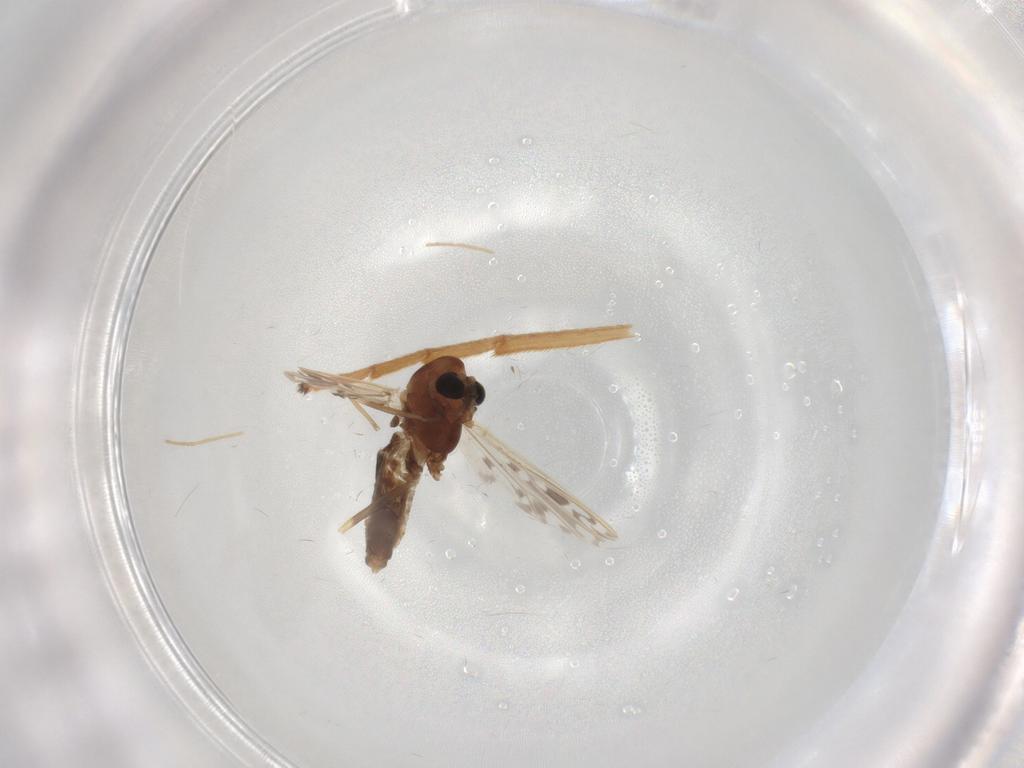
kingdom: Animalia
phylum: Arthropoda
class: Insecta
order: Diptera
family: Chironomidae
